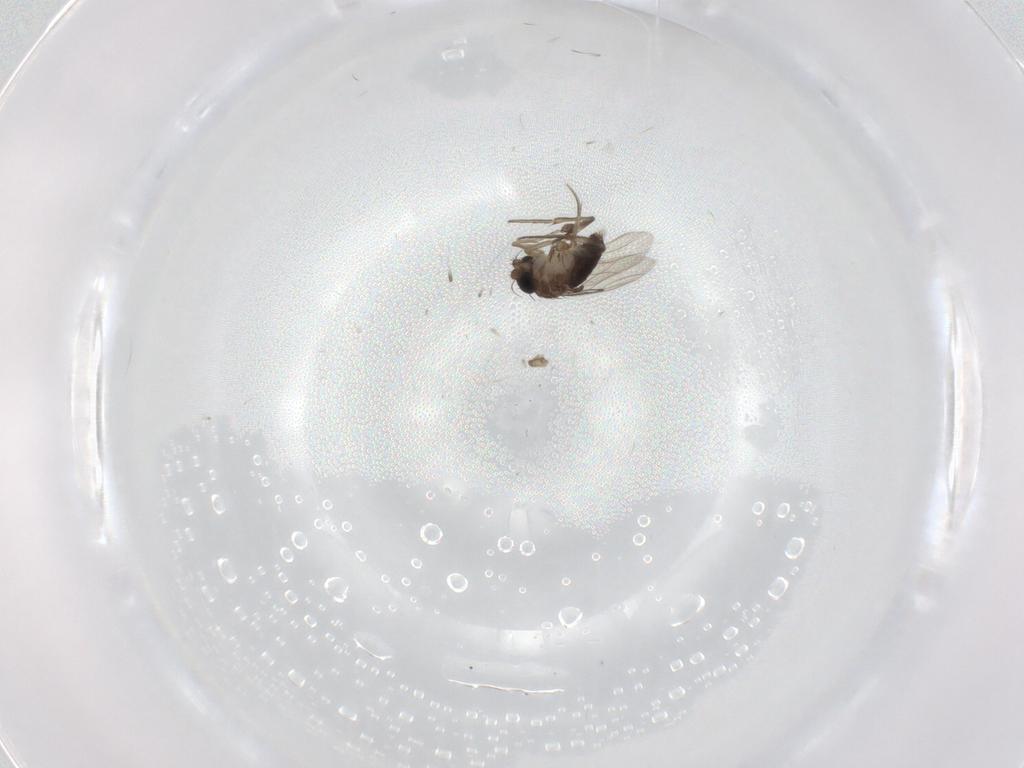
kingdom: Animalia
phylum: Arthropoda
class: Insecta
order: Diptera
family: Phoridae
